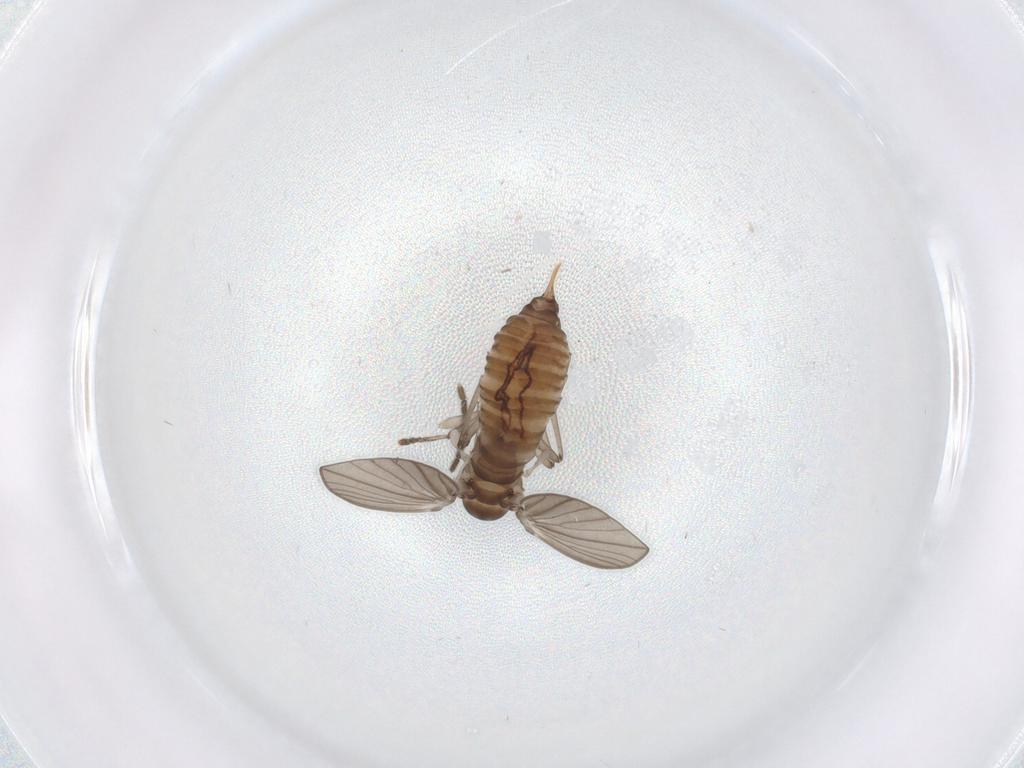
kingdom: Animalia
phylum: Arthropoda
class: Insecta
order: Diptera
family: Psychodidae
